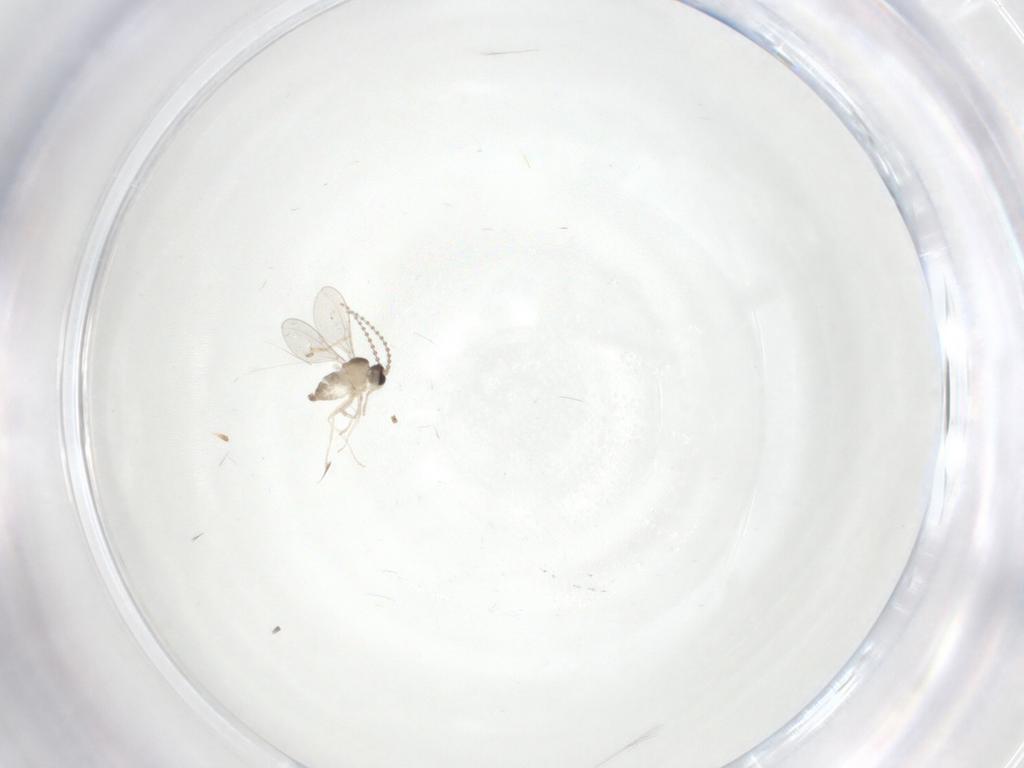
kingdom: Animalia
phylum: Arthropoda
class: Insecta
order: Diptera
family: Cecidomyiidae
